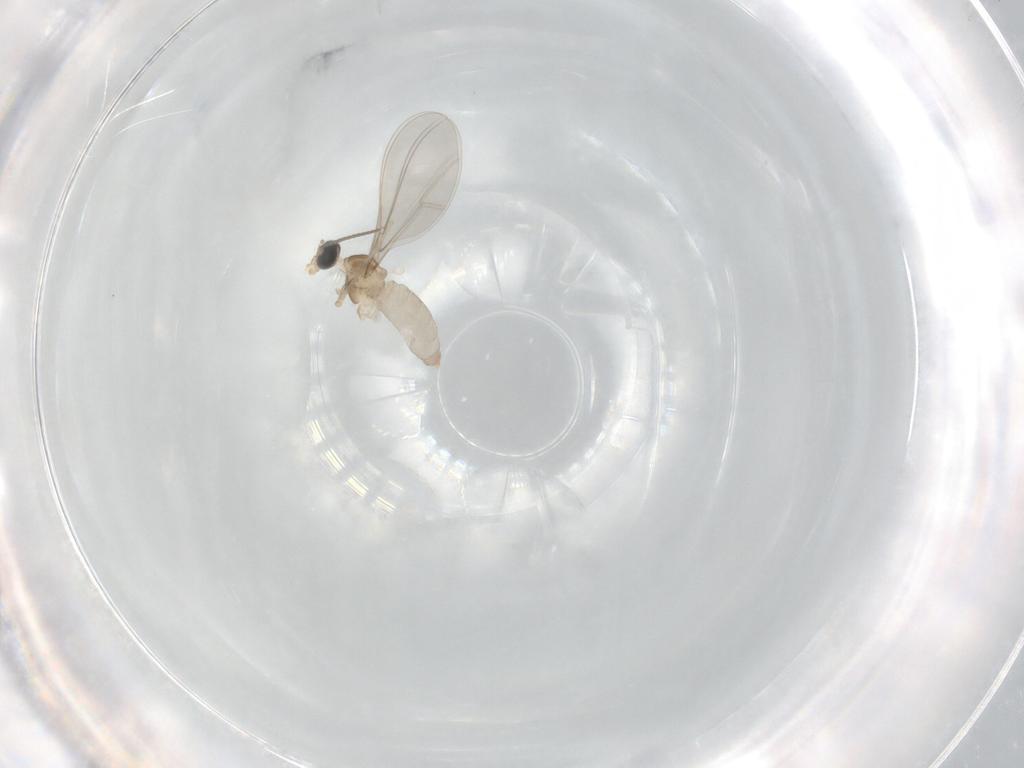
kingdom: Animalia
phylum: Arthropoda
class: Insecta
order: Diptera
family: Cecidomyiidae
